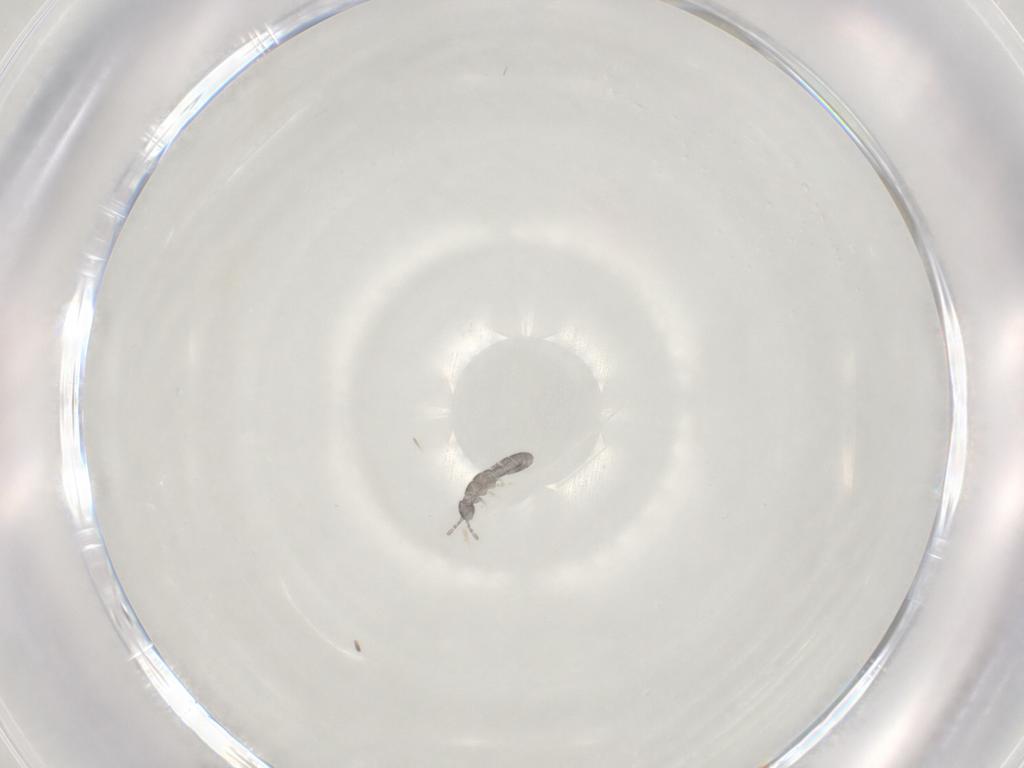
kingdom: Animalia
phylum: Arthropoda
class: Collembola
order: Entomobryomorpha
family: Isotomidae
